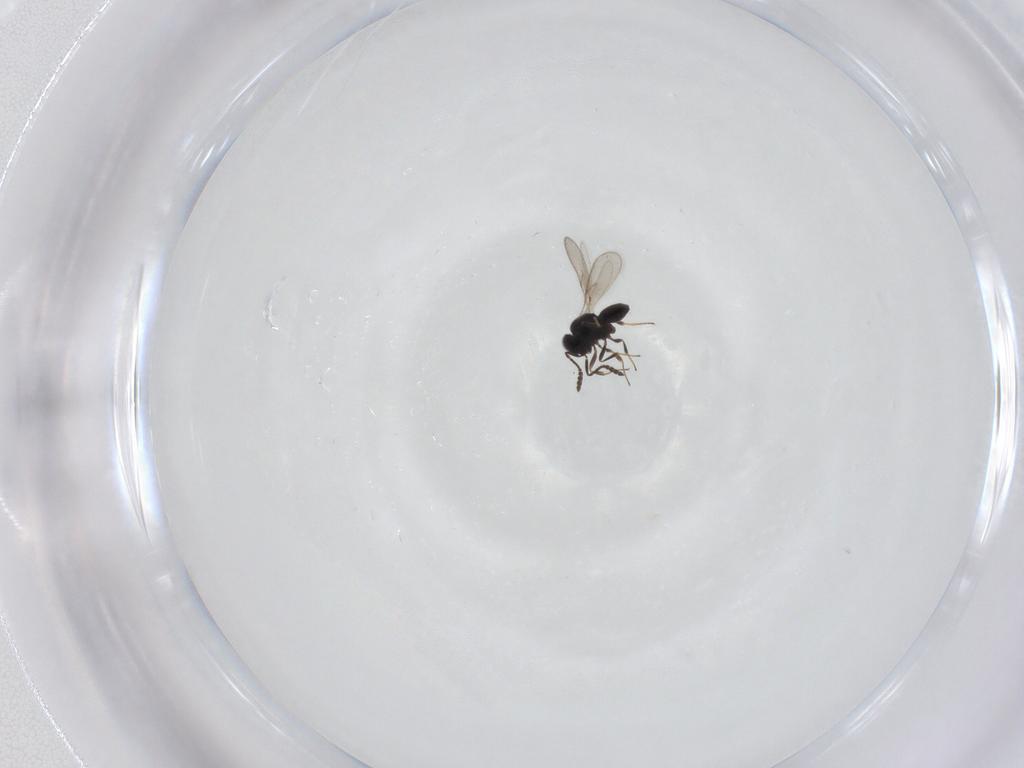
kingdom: Animalia
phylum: Arthropoda
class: Insecta
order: Hymenoptera
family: Scelionidae
